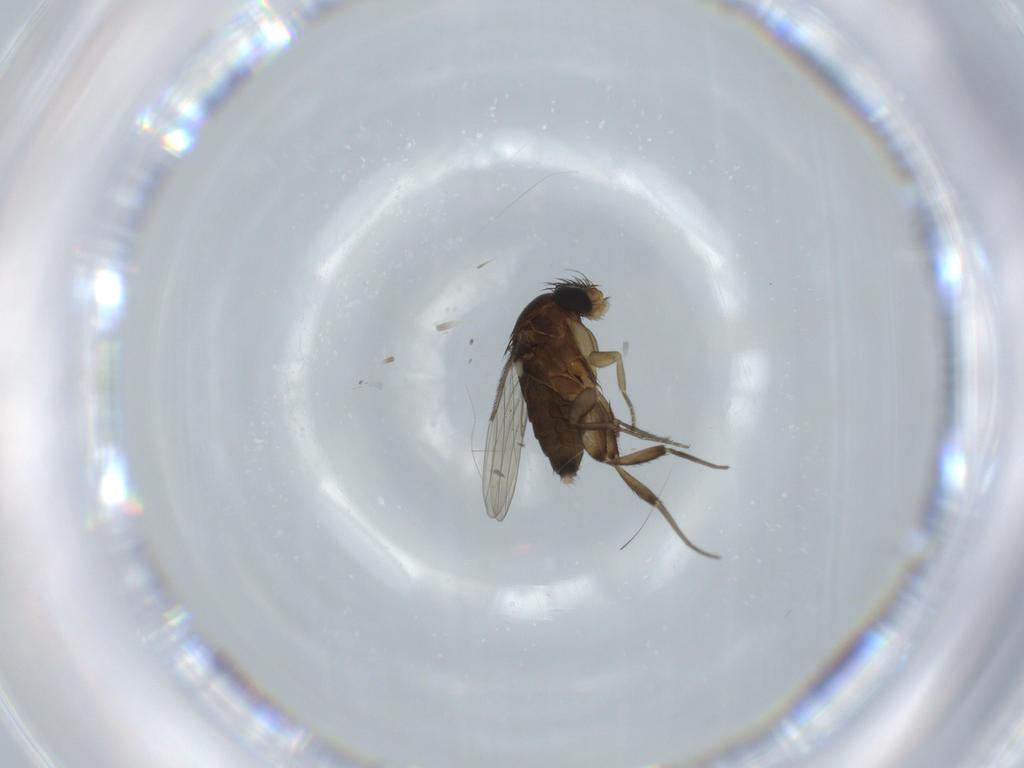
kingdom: Animalia
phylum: Arthropoda
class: Insecta
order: Diptera
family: Phoridae
